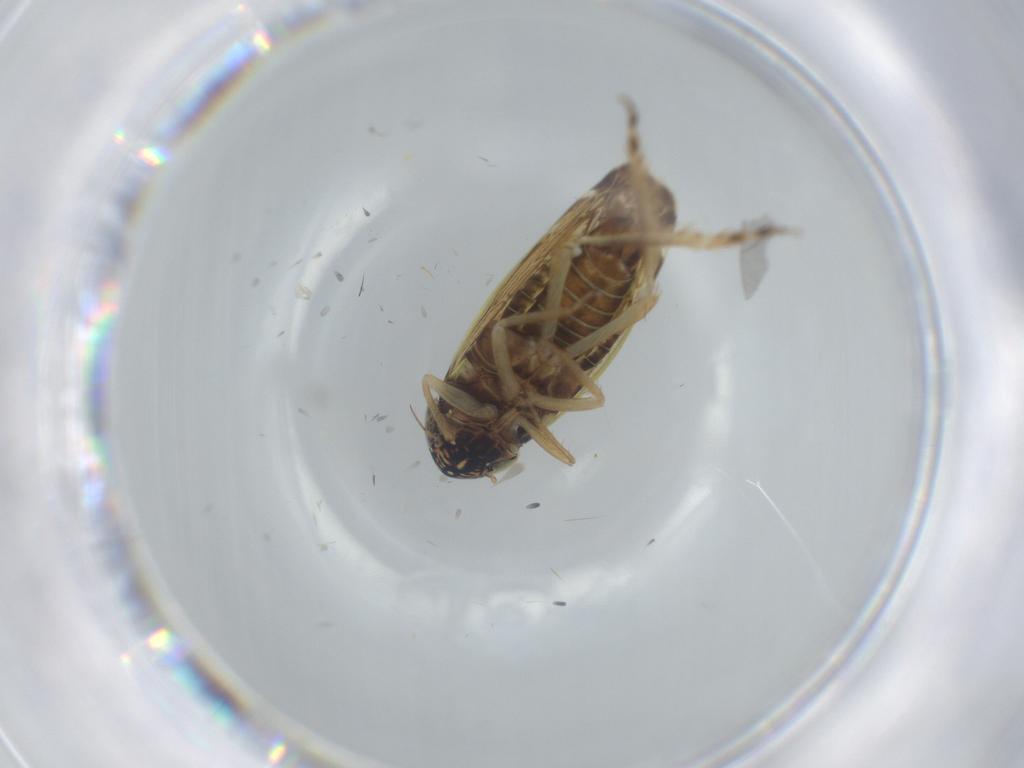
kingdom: Animalia
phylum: Arthropoda
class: Insecta
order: Hemiptera
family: Cicadellidae
